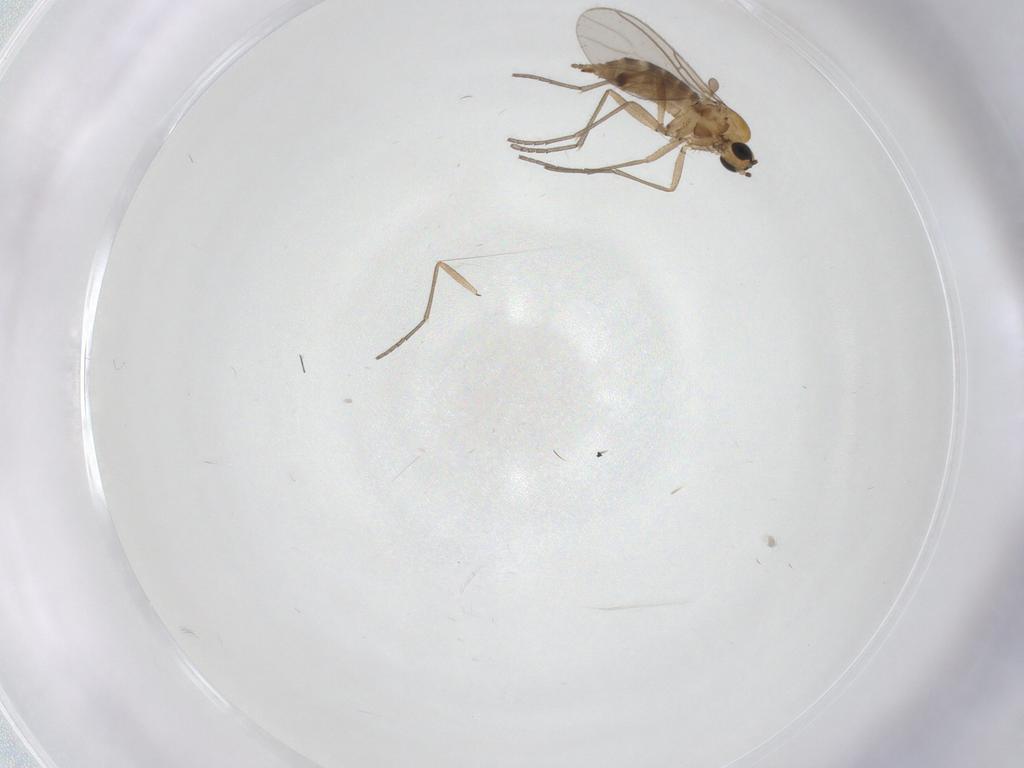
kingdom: Animalia
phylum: Arthropoda
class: Insecta
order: Diptera
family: Sciaridae
